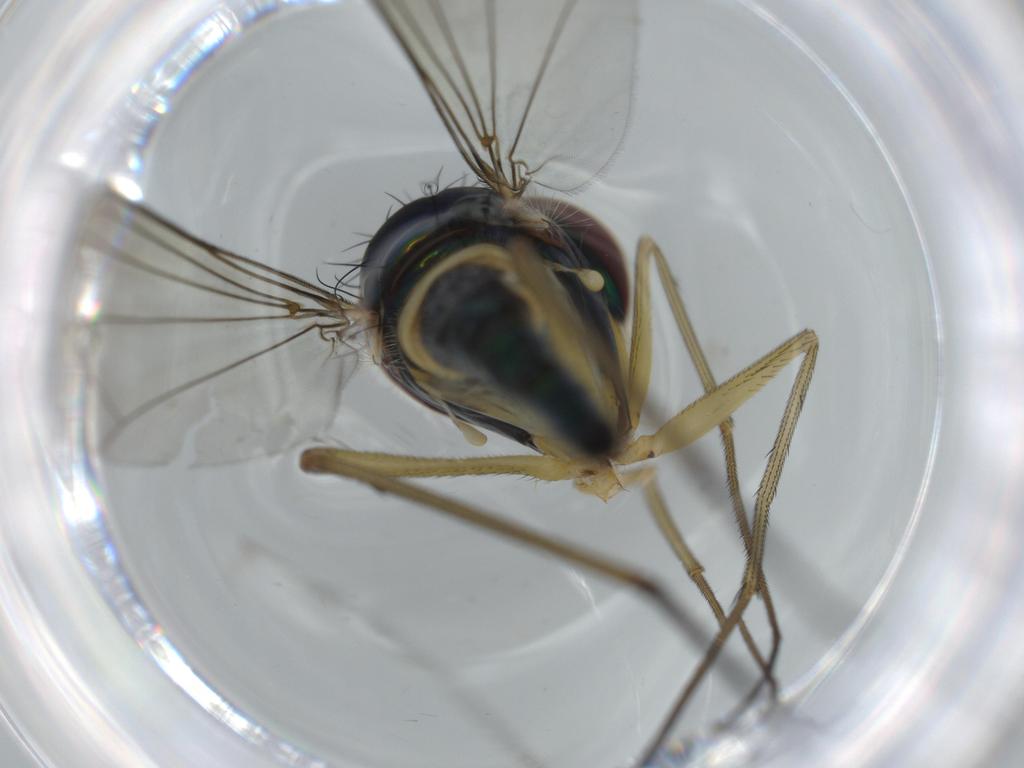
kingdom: Animalia
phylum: Arthropoda
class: Insecta
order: Diptera
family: Dolichopodidae
